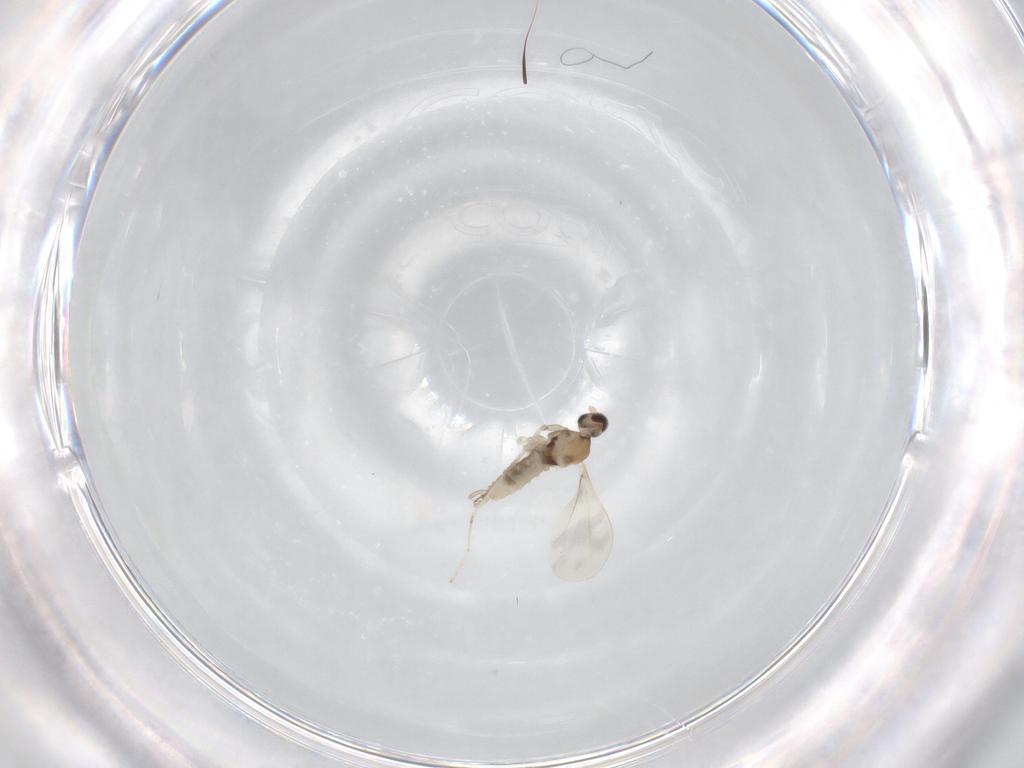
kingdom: Animalia
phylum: Arthropoda
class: Insecta
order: Diptera
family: Cecidomyiidae
